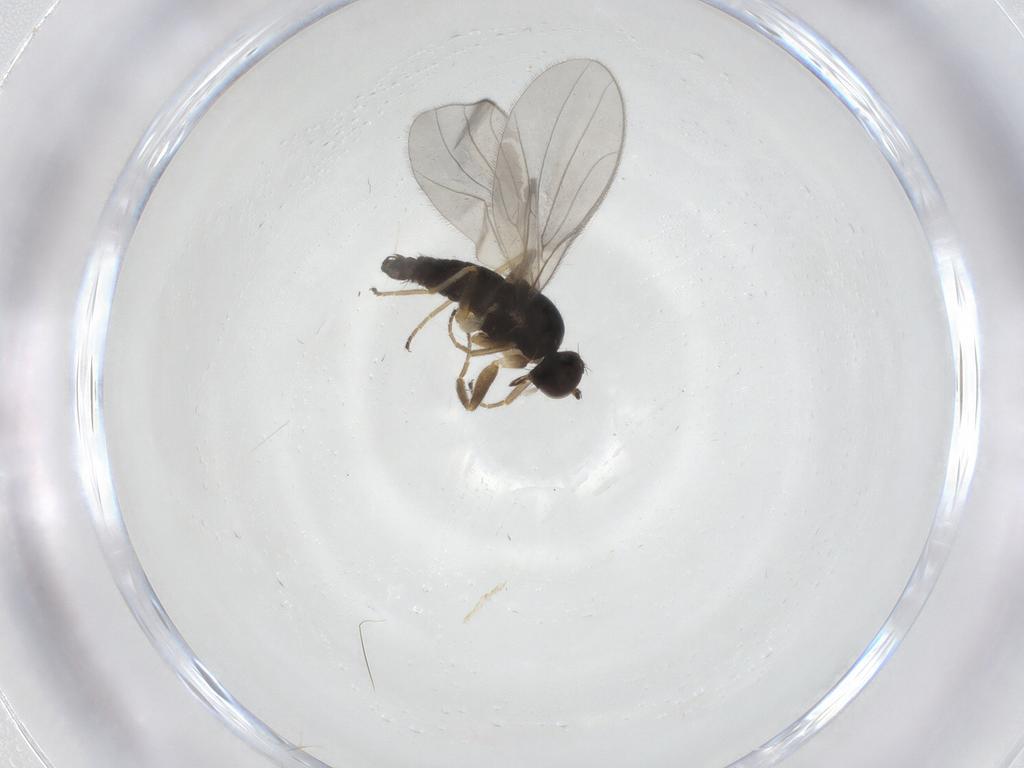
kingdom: Animalia
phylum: Arthropoda
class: Insecta
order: Diptera
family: Hybotidae
